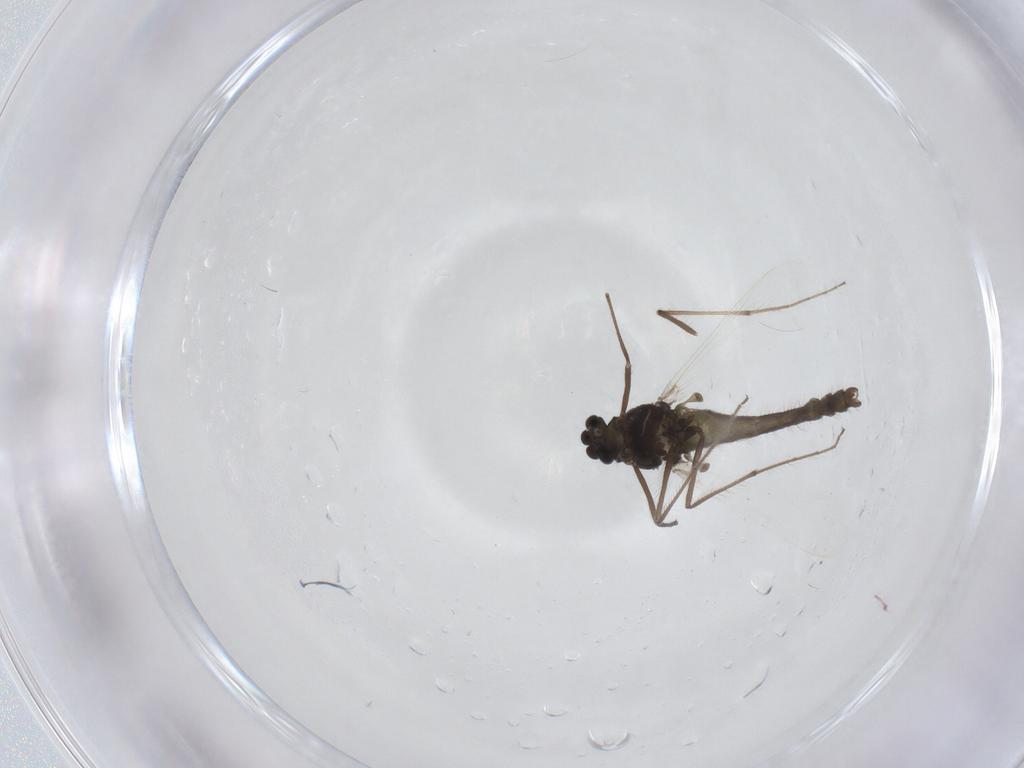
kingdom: Animalia
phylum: Arthropoda
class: Insecta
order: Diptera
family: Chironomidae
